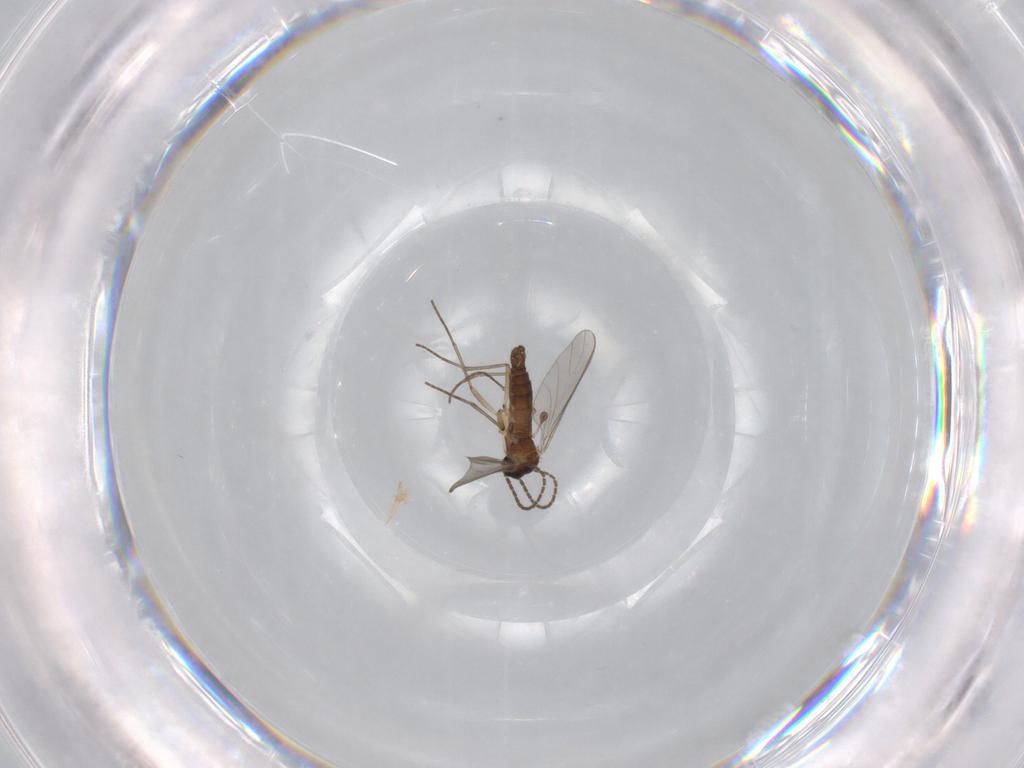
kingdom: Animalia
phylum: Arthropoda
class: Insecta
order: Diptera
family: Sciaridae
